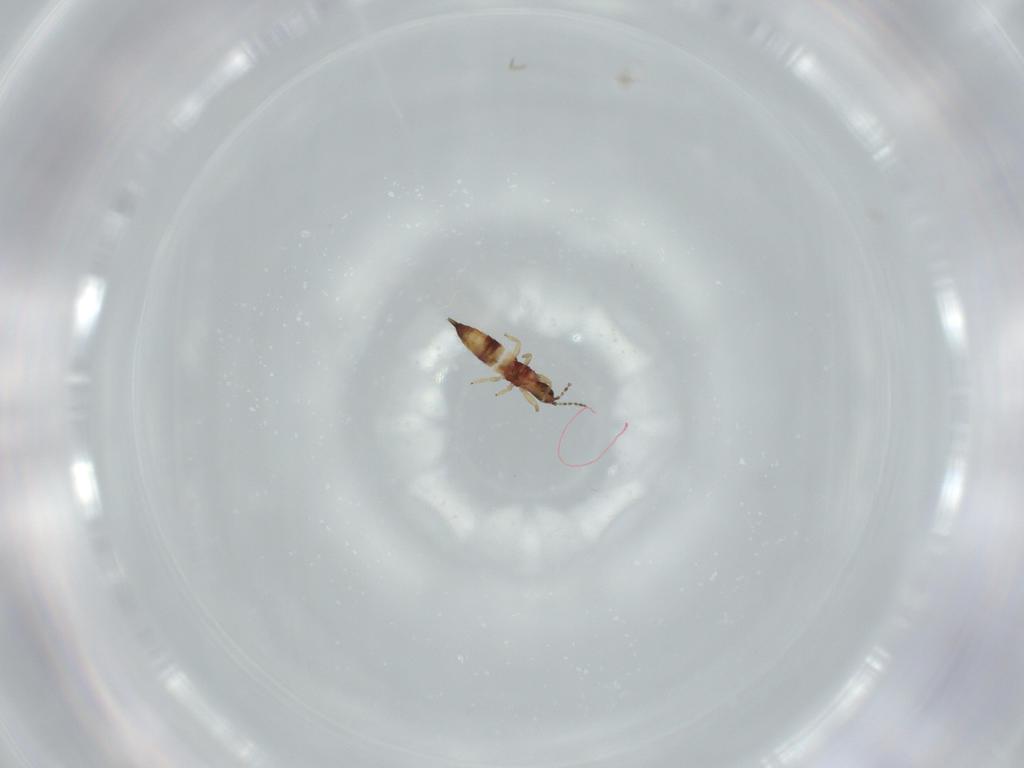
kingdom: Animalia
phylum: Arthropoda
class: Insecta
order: Thysanoptera
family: Phlaeothripidae
